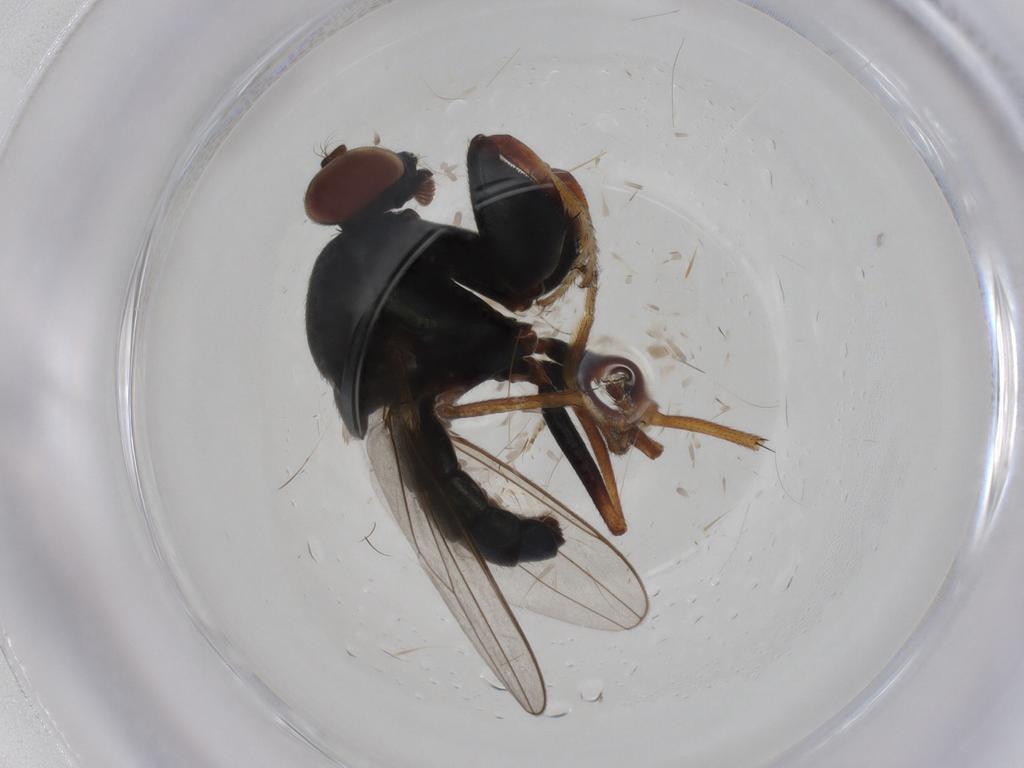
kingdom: Animalia
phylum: Arthropoda
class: Insecta
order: Diptera
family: Ephydridae
